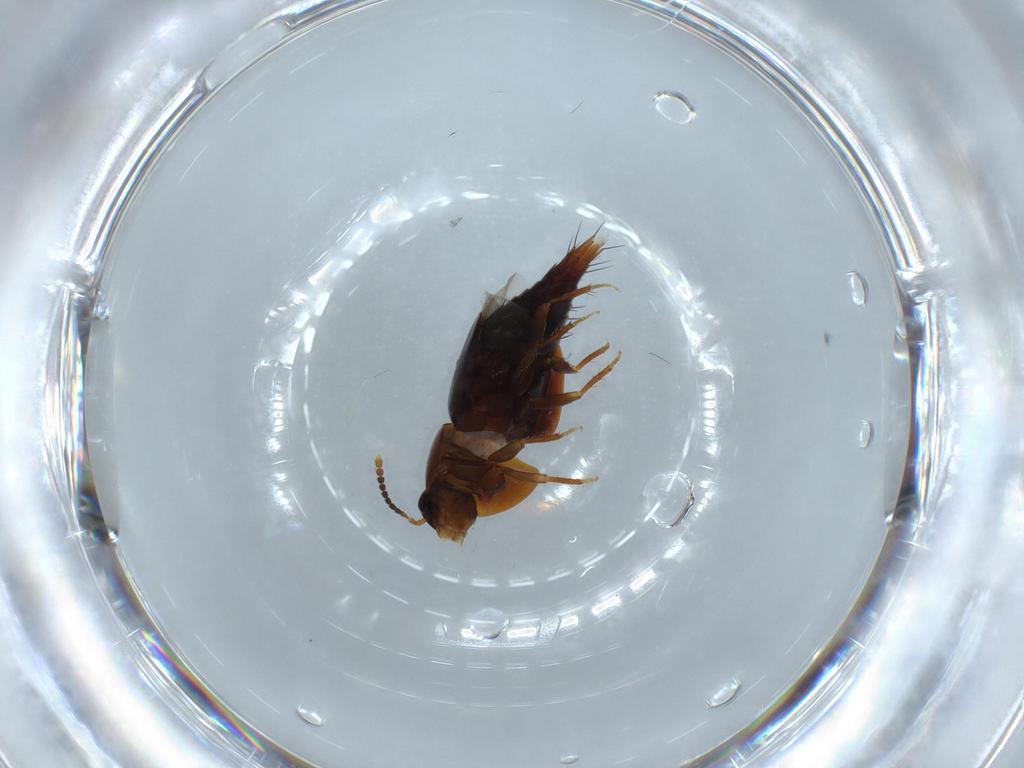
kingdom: Animalia
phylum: Arthropoda
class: Insecta
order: Coleoptera
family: Staphylinidae
